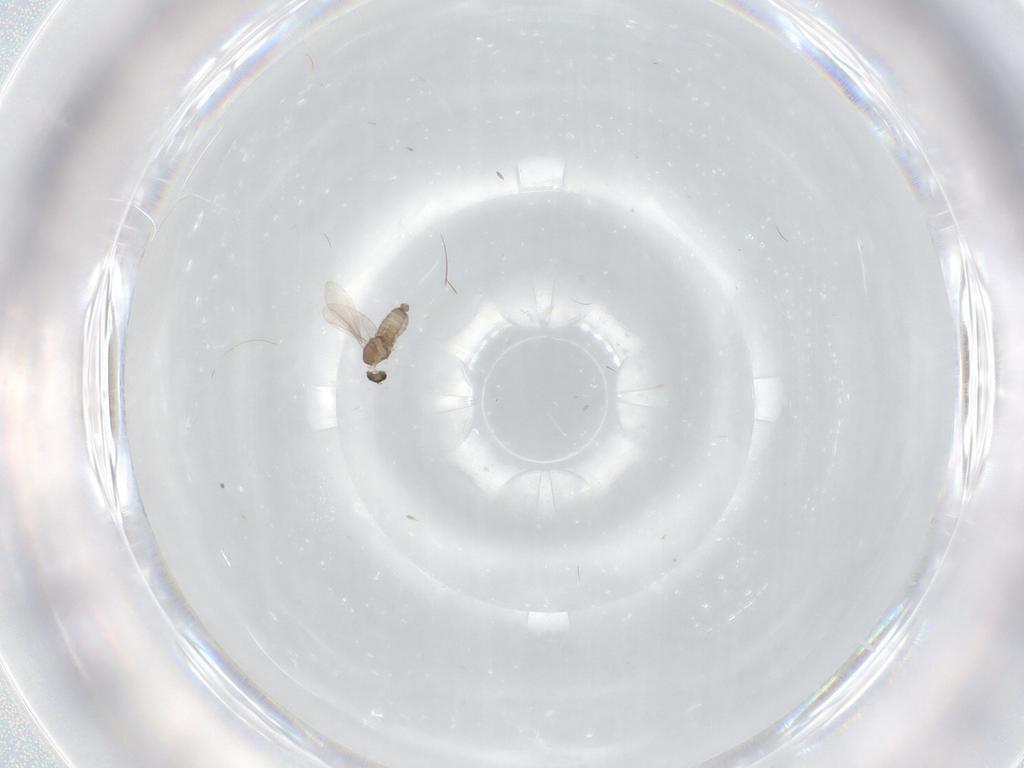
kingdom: Animalia
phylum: Arthropoda
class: Insecta
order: Diptera
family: Cecidomyiidae
